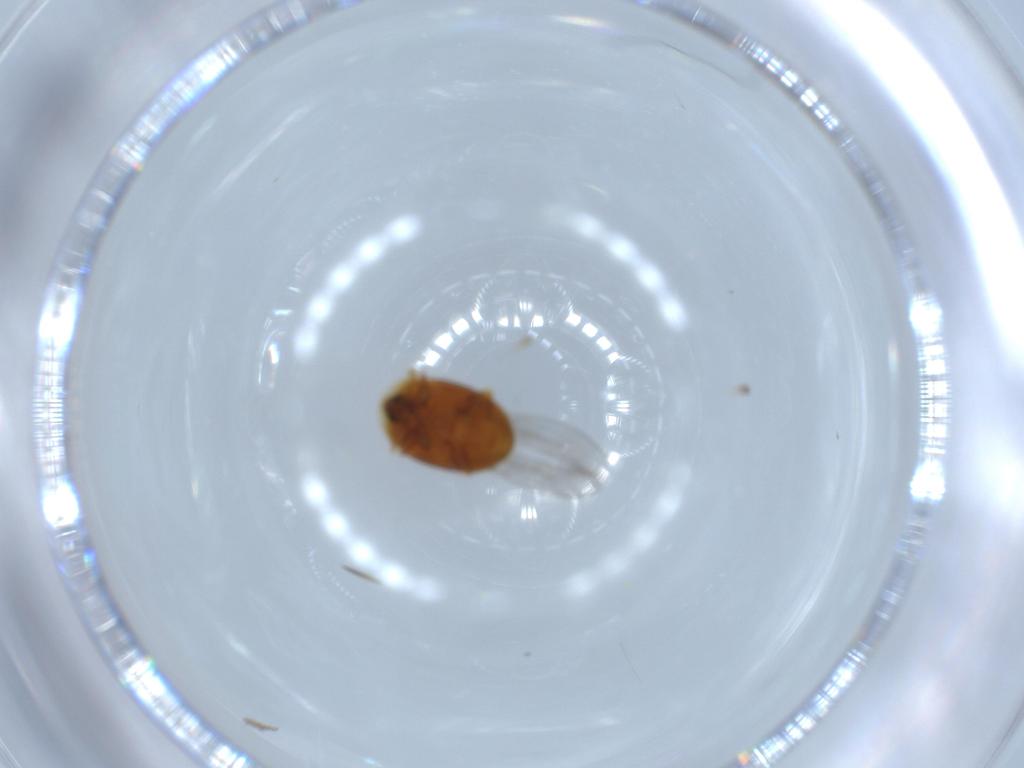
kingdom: Animalia
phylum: Arthropoda
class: Insecta
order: Coleoptera
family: Corylophidae
